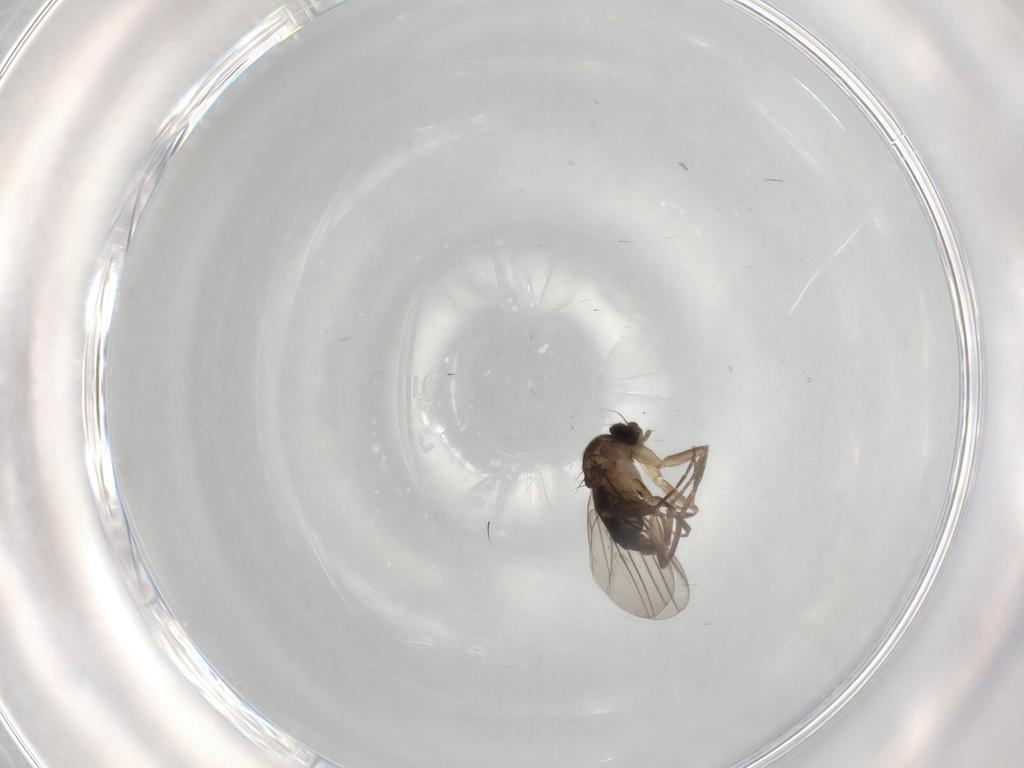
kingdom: Animalia
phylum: Arthropoda
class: Insecta
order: Diptera
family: Phoridae
